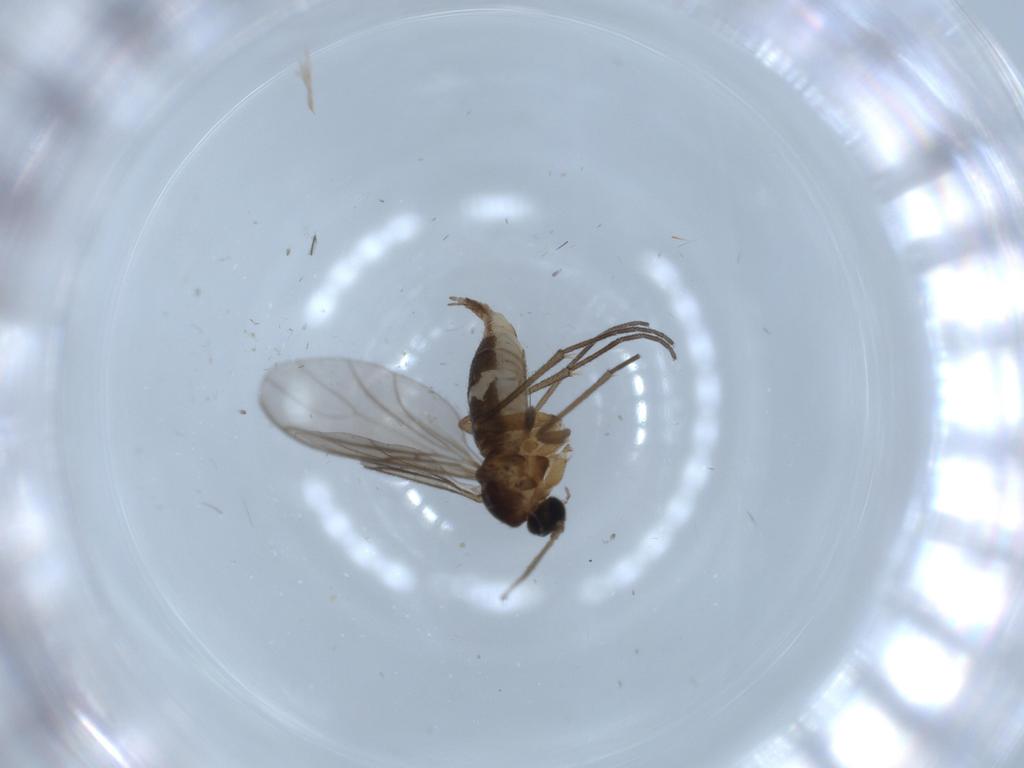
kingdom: Animalia
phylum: Arthropoda
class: Insecta
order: Diptera
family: Sciaridae
